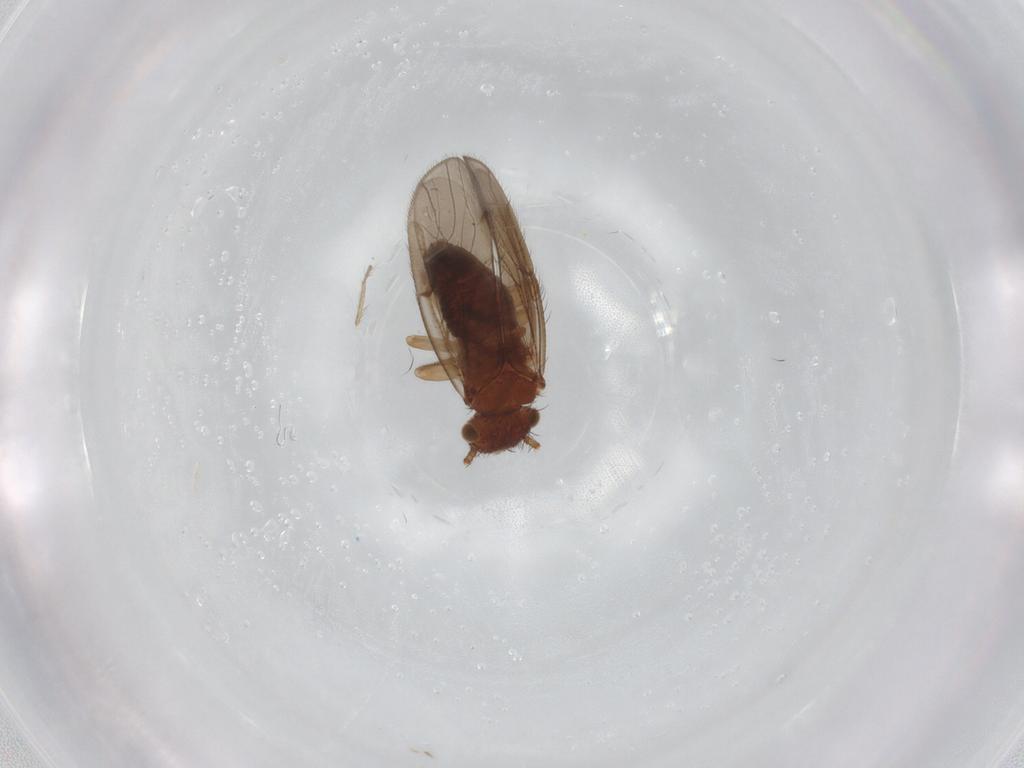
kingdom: Animalia
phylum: Arthropoda
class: Insecta
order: Psocodea
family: Ectopsocidae
